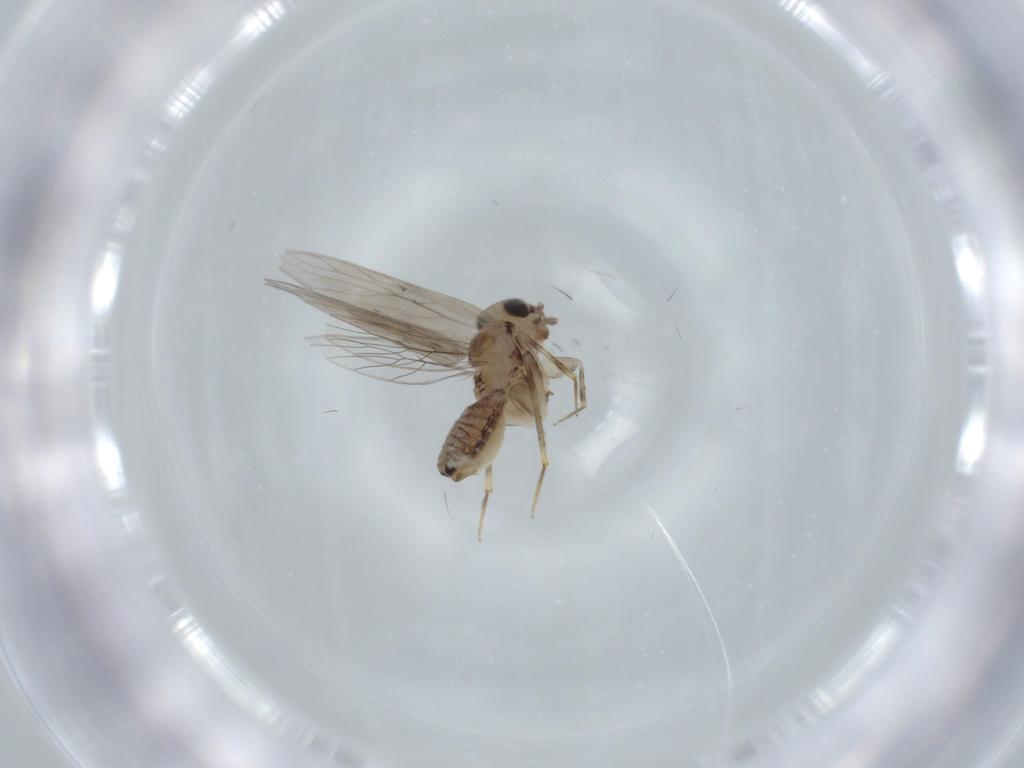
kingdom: Animalia
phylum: Arthropoda
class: Insecta
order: Psocodea
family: Lepidopsocidae
